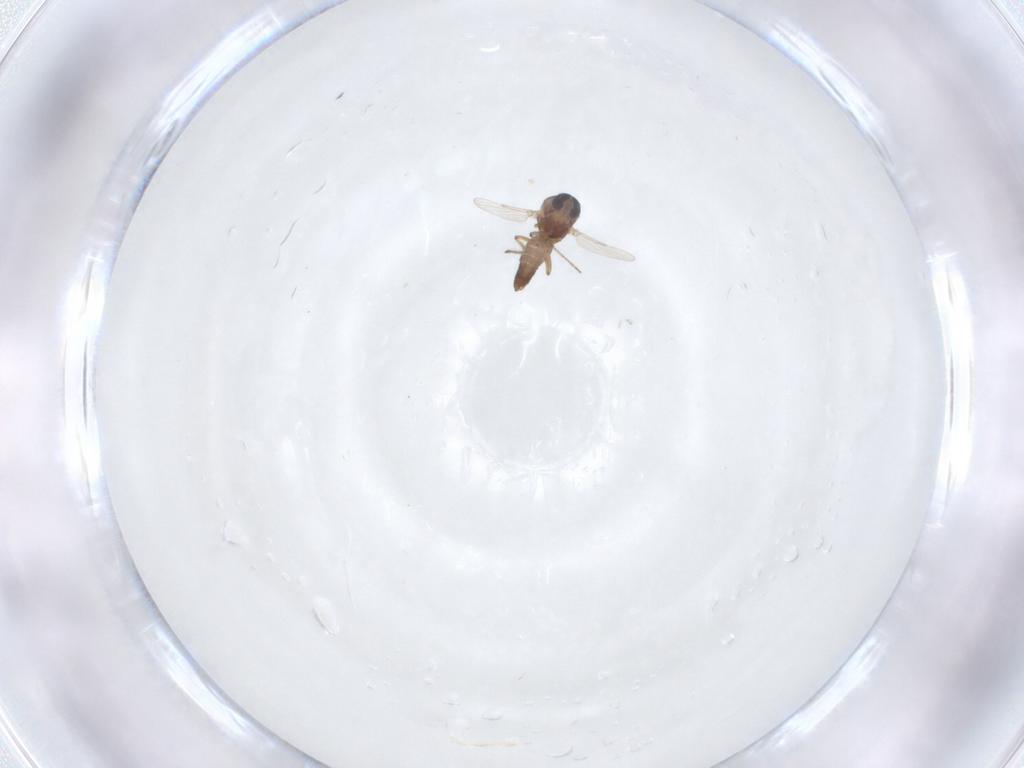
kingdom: Animalia
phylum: Arthropoda
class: Insecta
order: Diptera
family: Ceratopogonidae
